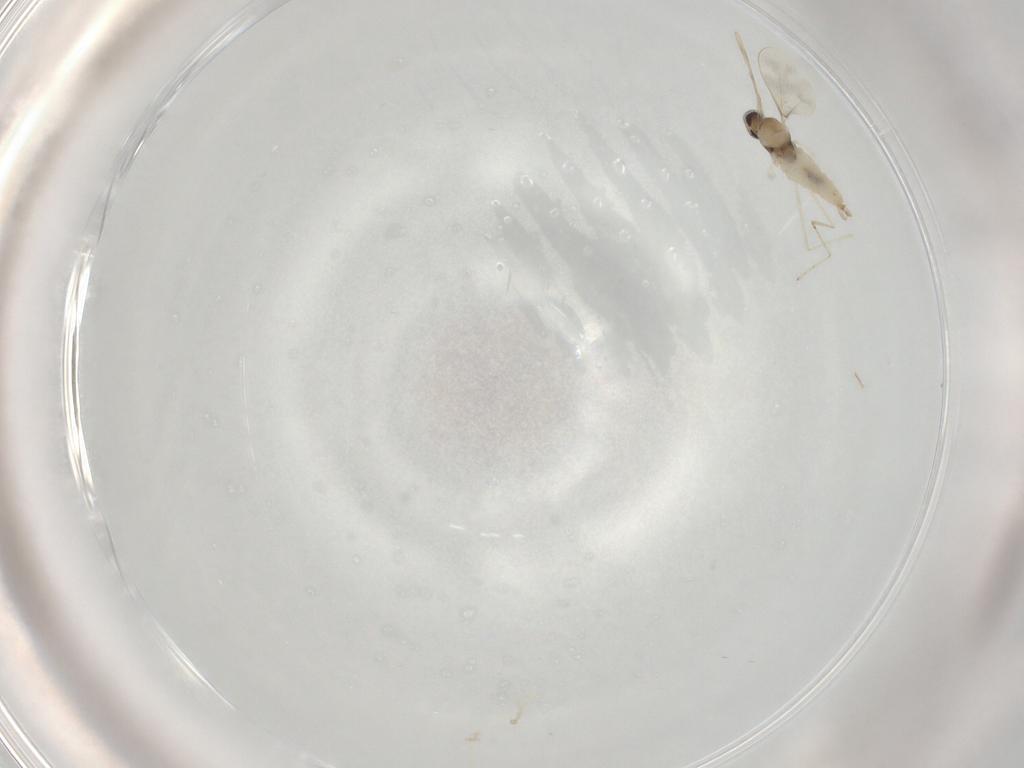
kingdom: Animalia
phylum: Arthropoda
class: Insecta
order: Diptera
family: Cecidomyiidae
